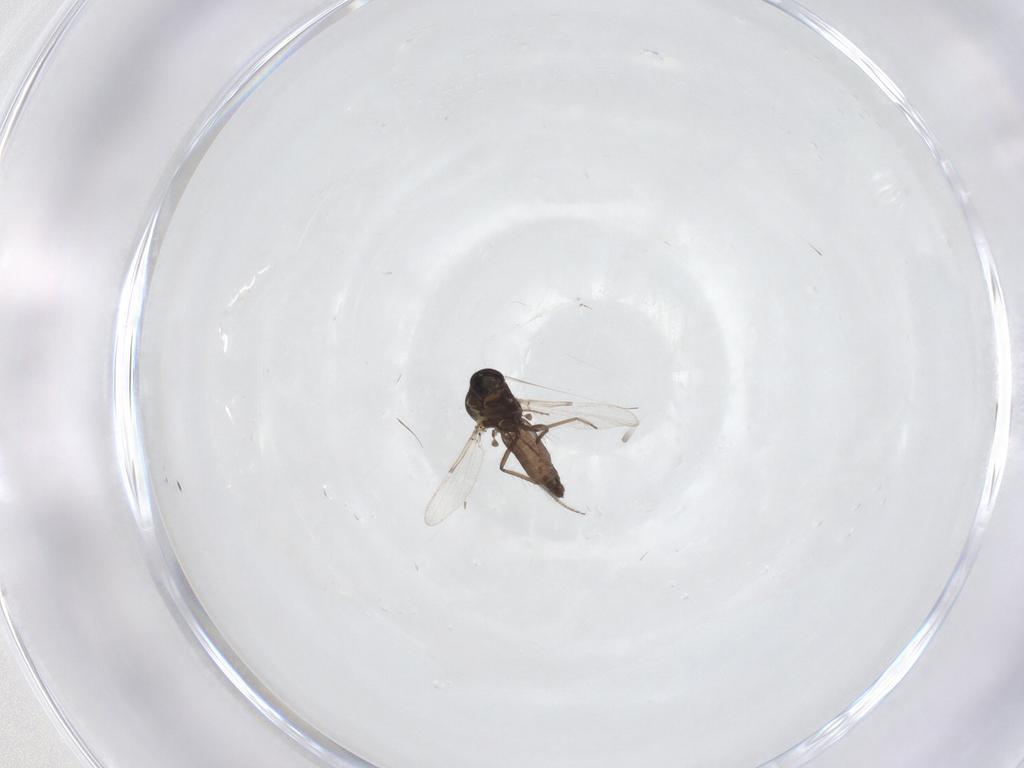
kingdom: Animalia
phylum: Arthropoda
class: Insecta
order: Diptera
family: Ceratopogonidae
